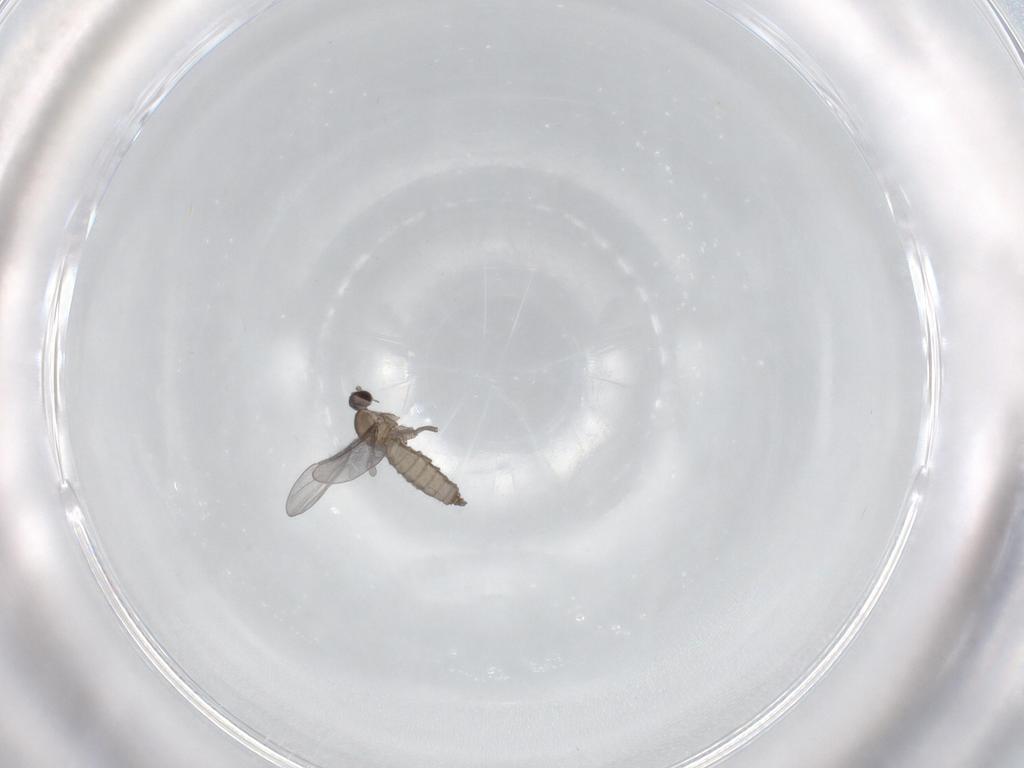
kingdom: Animalia
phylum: Arthropoda
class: Insecta
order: Diptera
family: Cecidomyiidae
